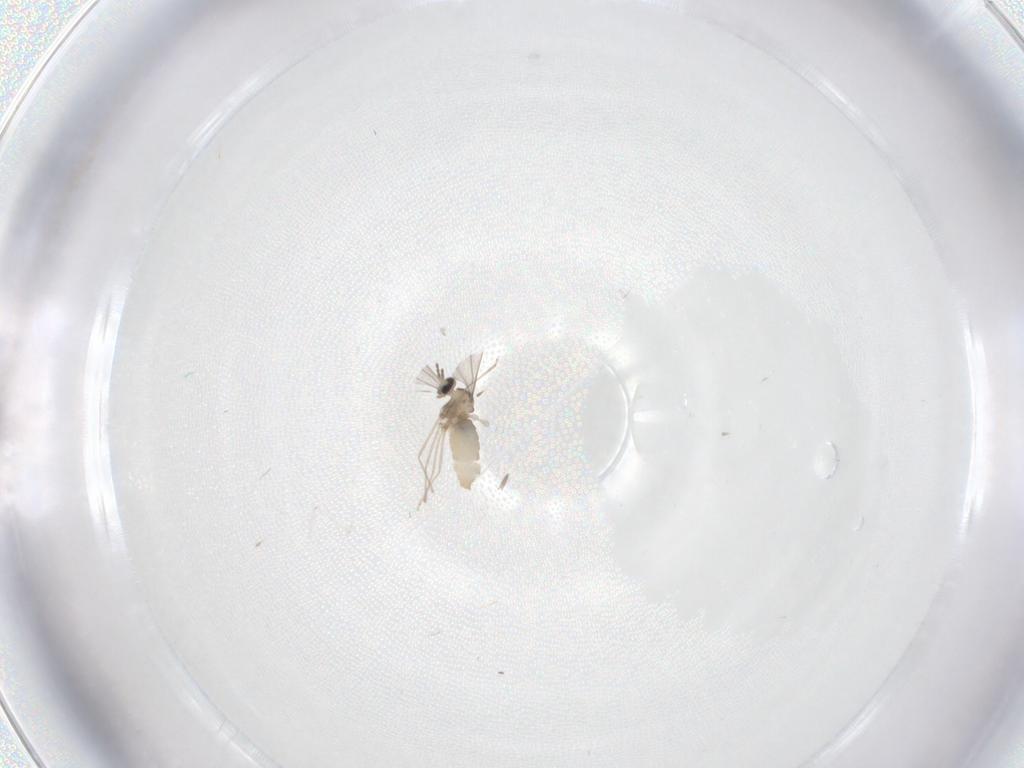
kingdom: Animalia
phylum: Arthropoda
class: Insecta
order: Diptera
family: Cecidomyiidae
